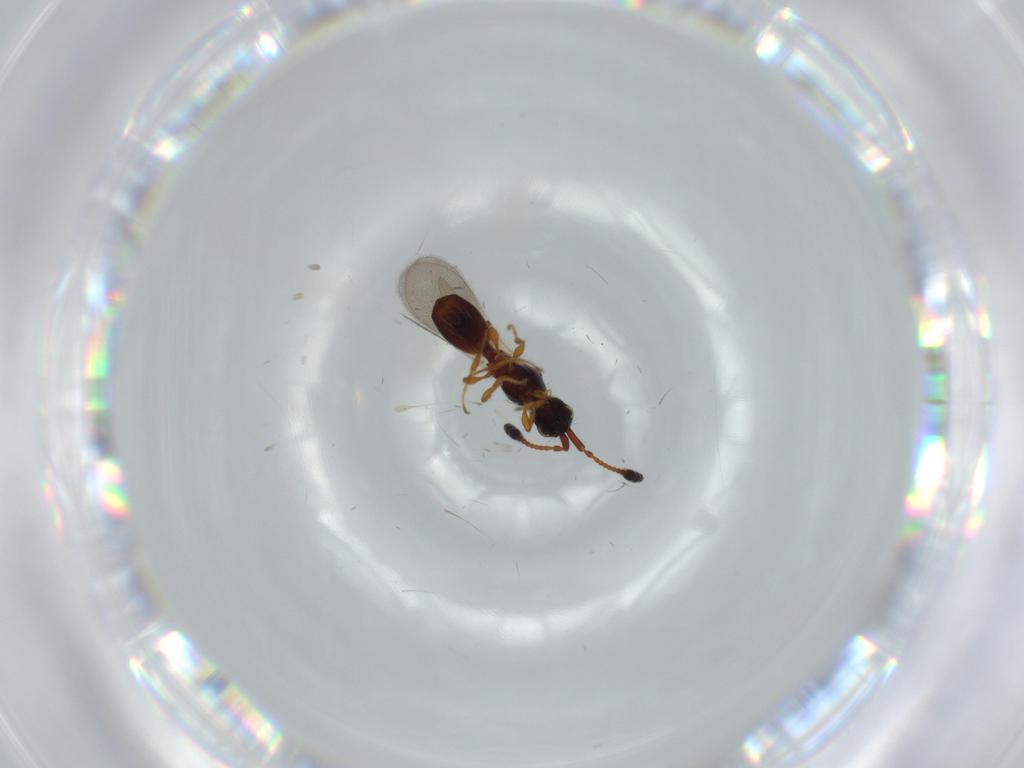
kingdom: Animalia
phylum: Arthropoda
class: Insecta
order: Hymenoptera
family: Diapriidae
